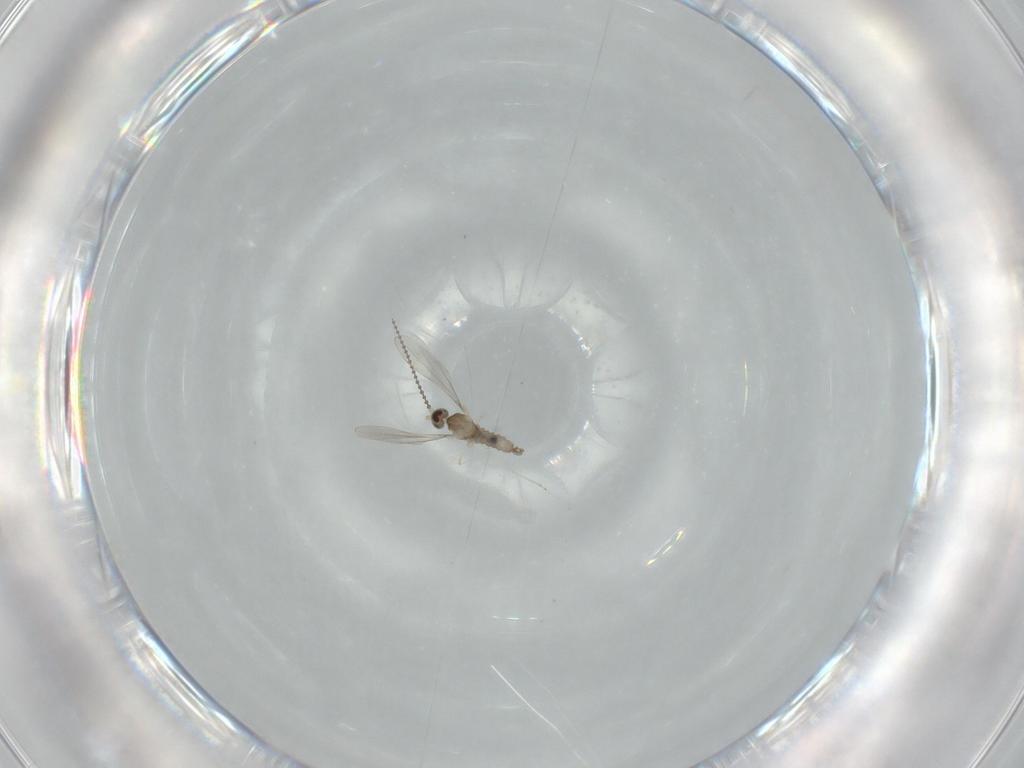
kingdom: Animalia
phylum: Arthropoda
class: Insecta
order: Diptera
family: Cecidomyiidae
